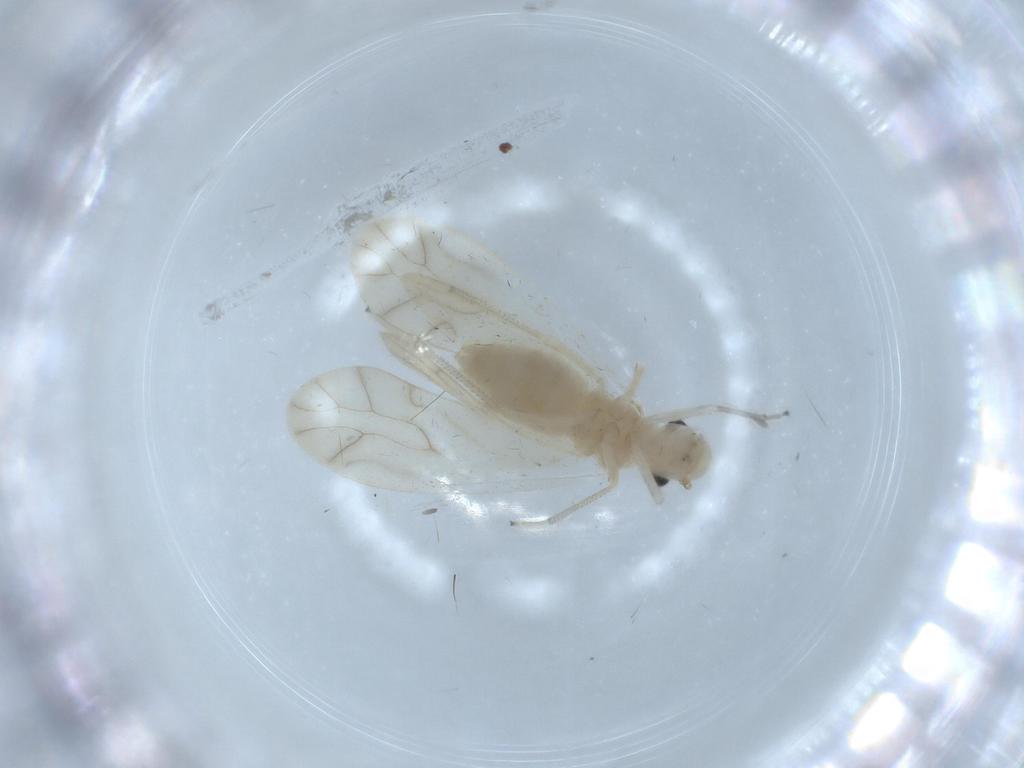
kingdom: Animalia
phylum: Arthropoda
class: Insecta
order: Psocodea
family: Caeciliusidae
